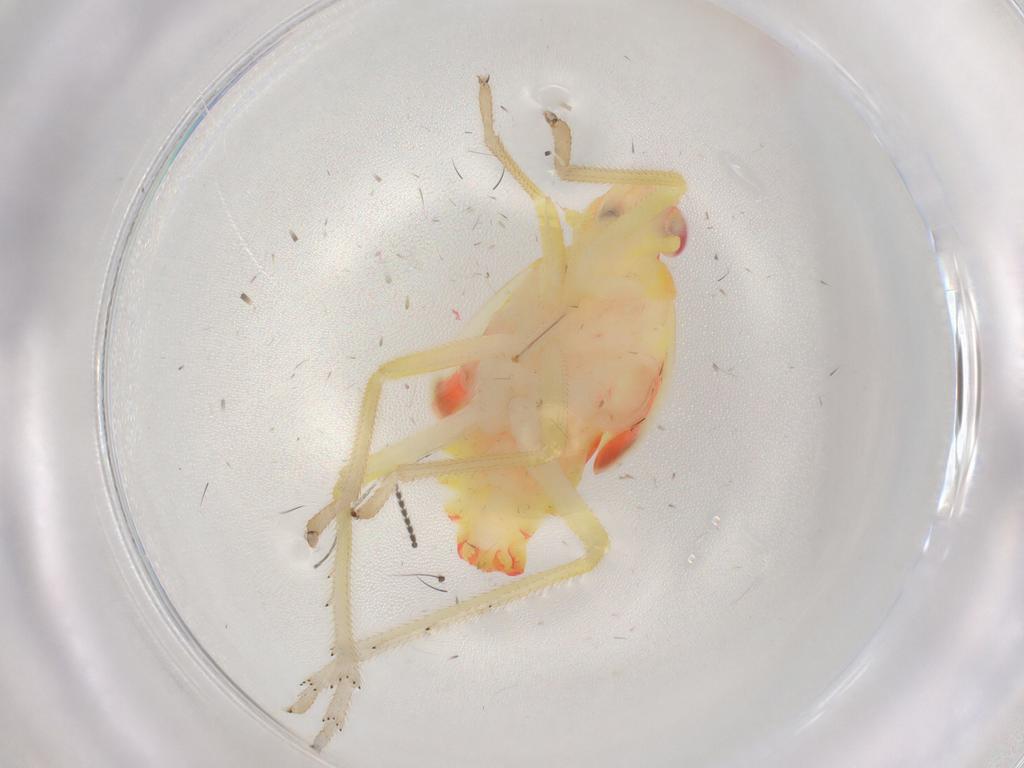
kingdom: Animalia
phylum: Arthropoda
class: Insecta
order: Hemiptera
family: Tropiduchidae
